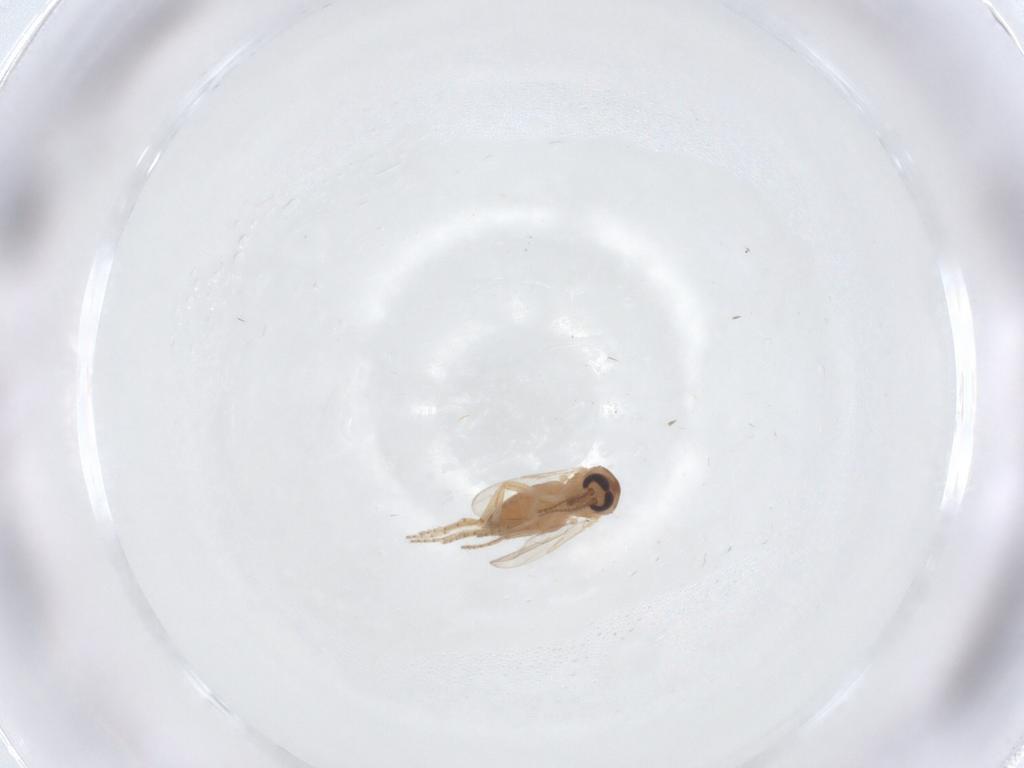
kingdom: Animalia
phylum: Arthropoda
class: Insecta
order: Diptera
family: Ceratopogonidae
